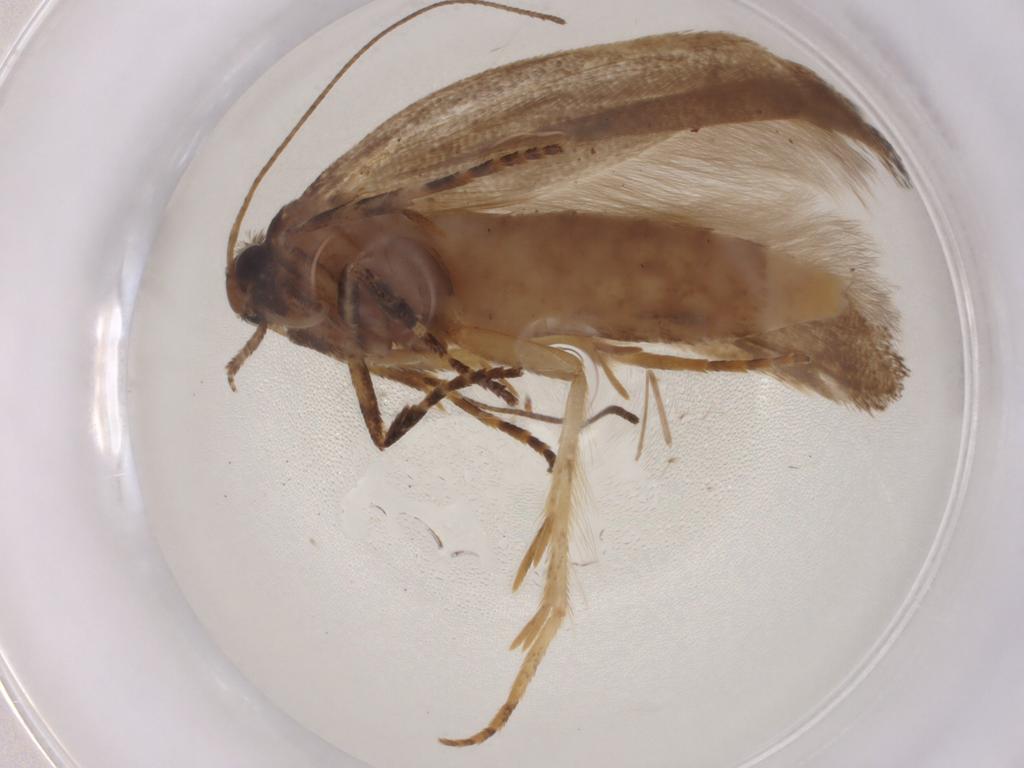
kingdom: Animalia
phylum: Arthropoda
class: Insecta
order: Lepidoptera
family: Gelechiidae
